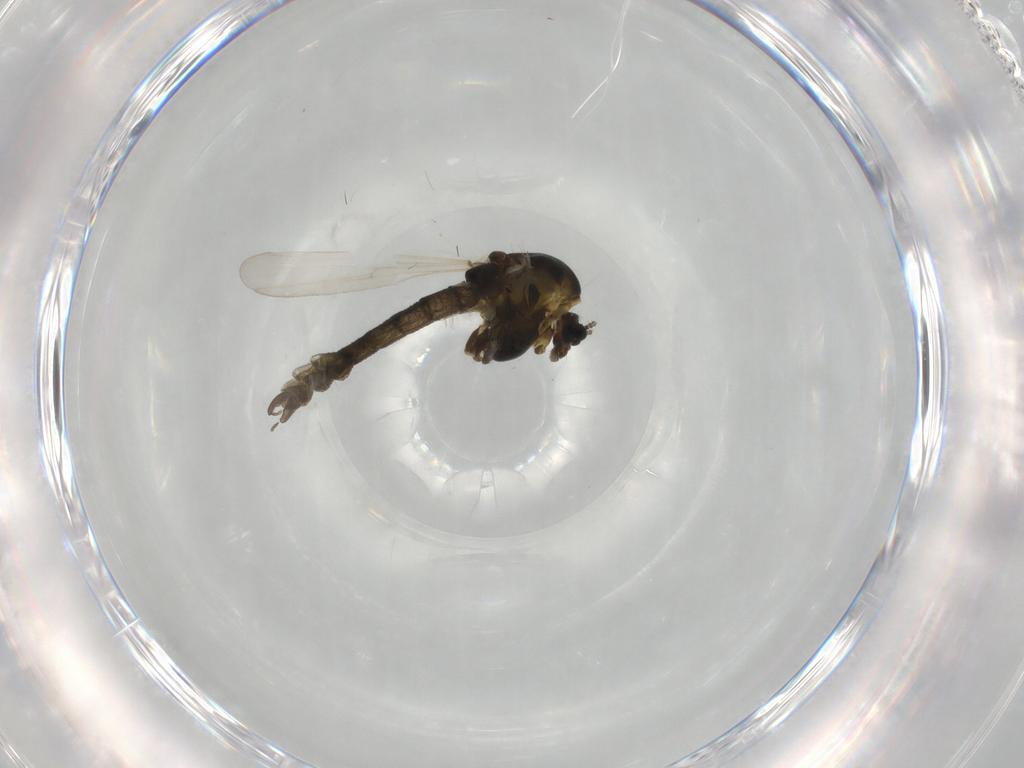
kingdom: Animalia
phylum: Arthropoda
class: Insecta
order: Diptera
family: Chironomidae
